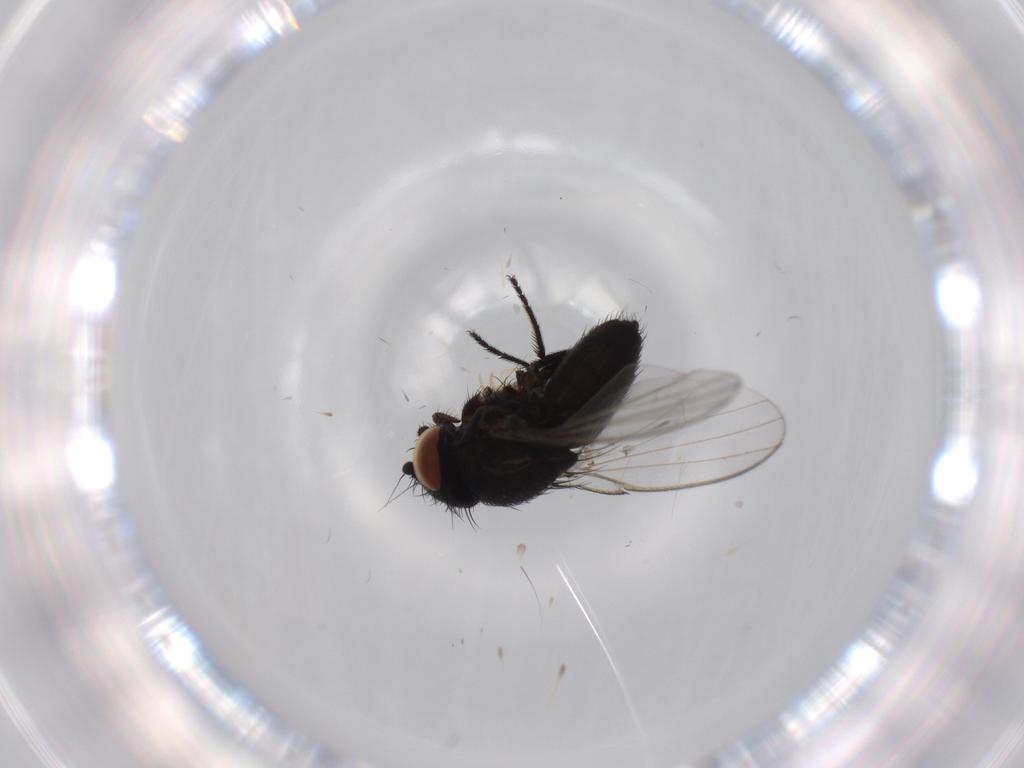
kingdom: Animalia
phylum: Arthropoda
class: Insecta
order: Diptera
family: Milichiidae
